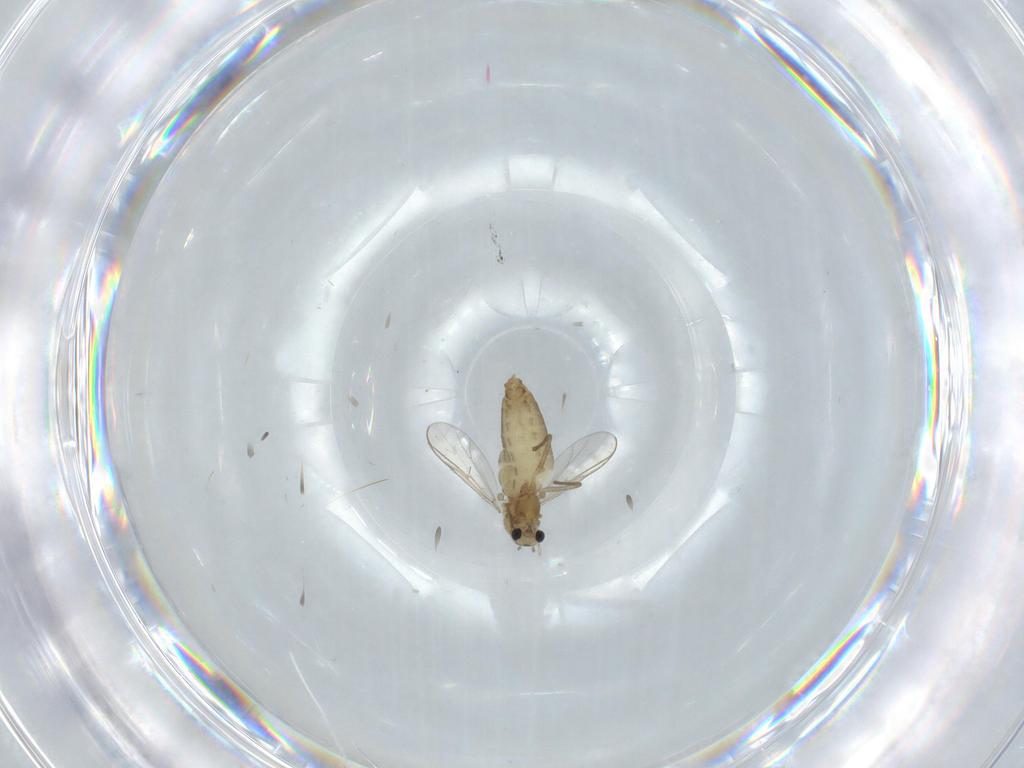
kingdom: Animalia
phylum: Arthropoda
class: Insecta
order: Diptera
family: Chironomidae
